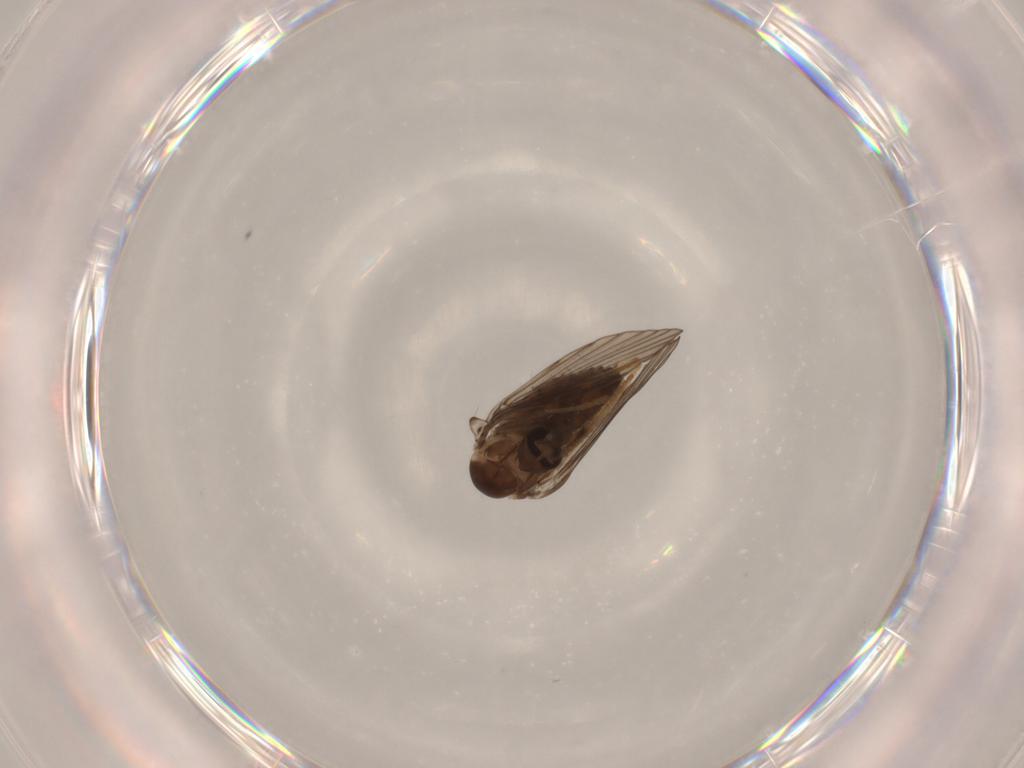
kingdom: Animalia
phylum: Arthropoda
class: Insecta
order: Diptera
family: Psychodidae
